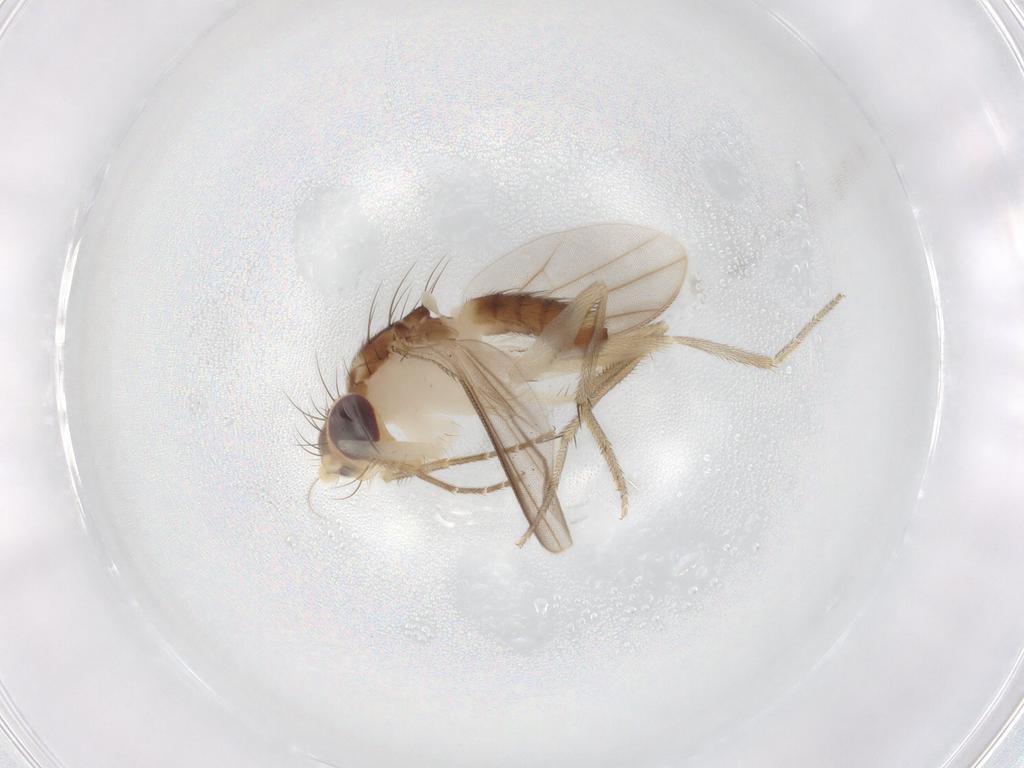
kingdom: Animalia
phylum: Arthropoda
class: Insecta
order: Diptera
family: Clusiidae
